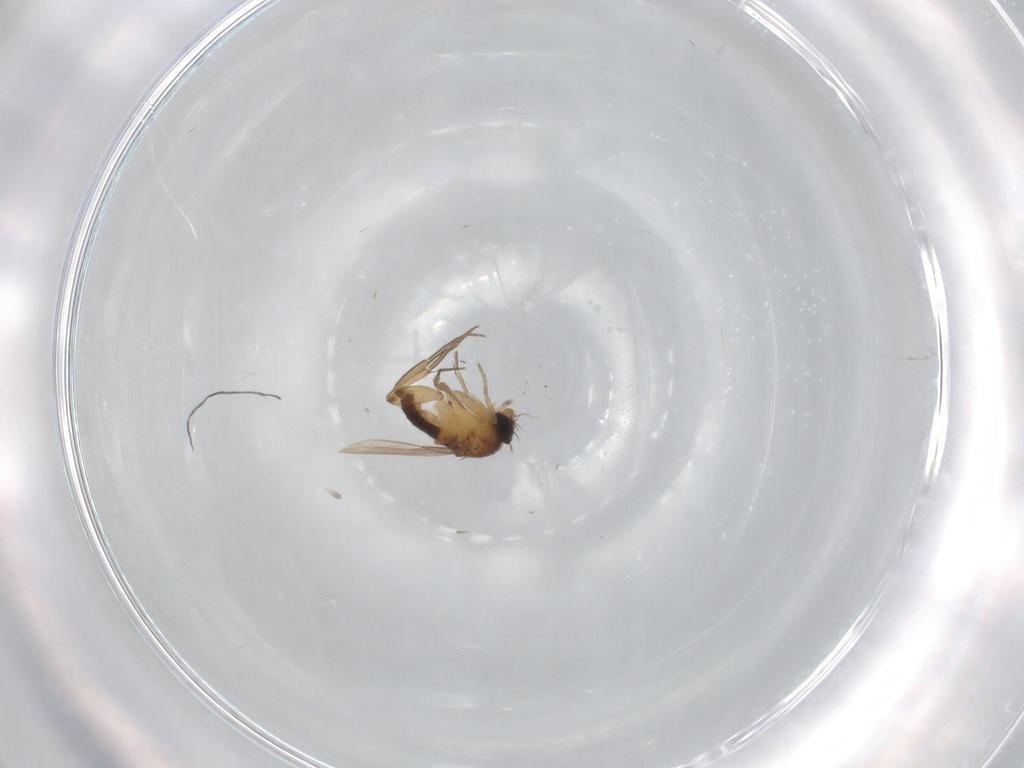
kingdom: Animalia
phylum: Arthropoda
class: Insecta
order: Diptera
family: Phoridae
